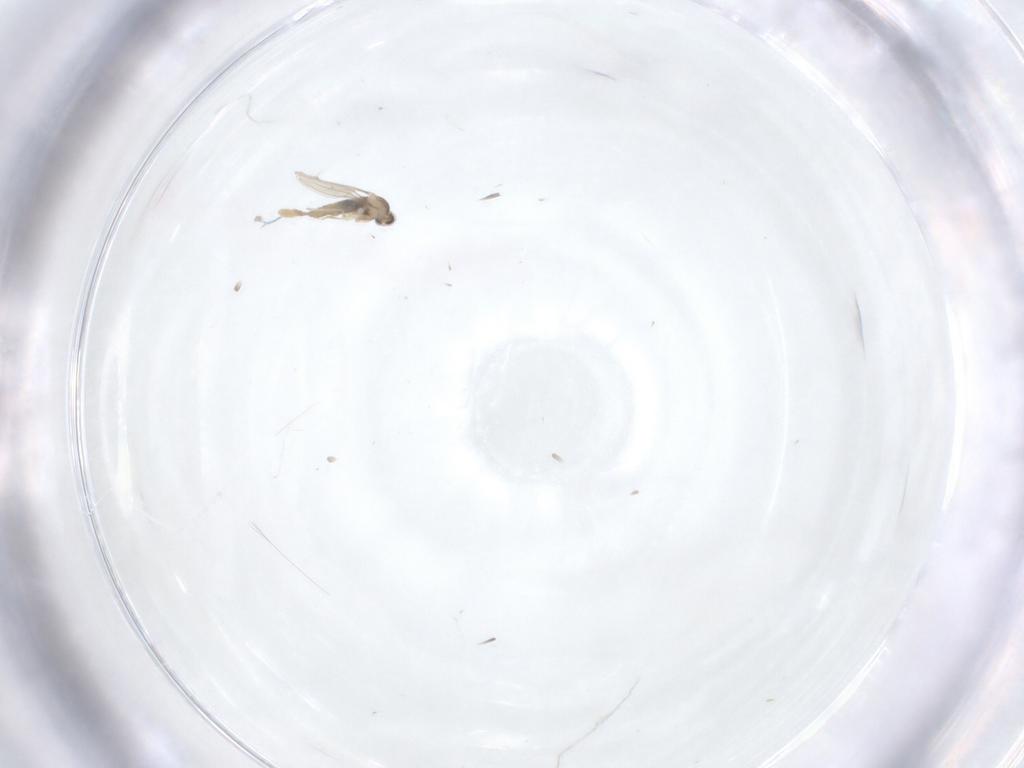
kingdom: Animalia
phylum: Arthropoda
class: Insecta
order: Diptera
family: Cecidomyiidae
